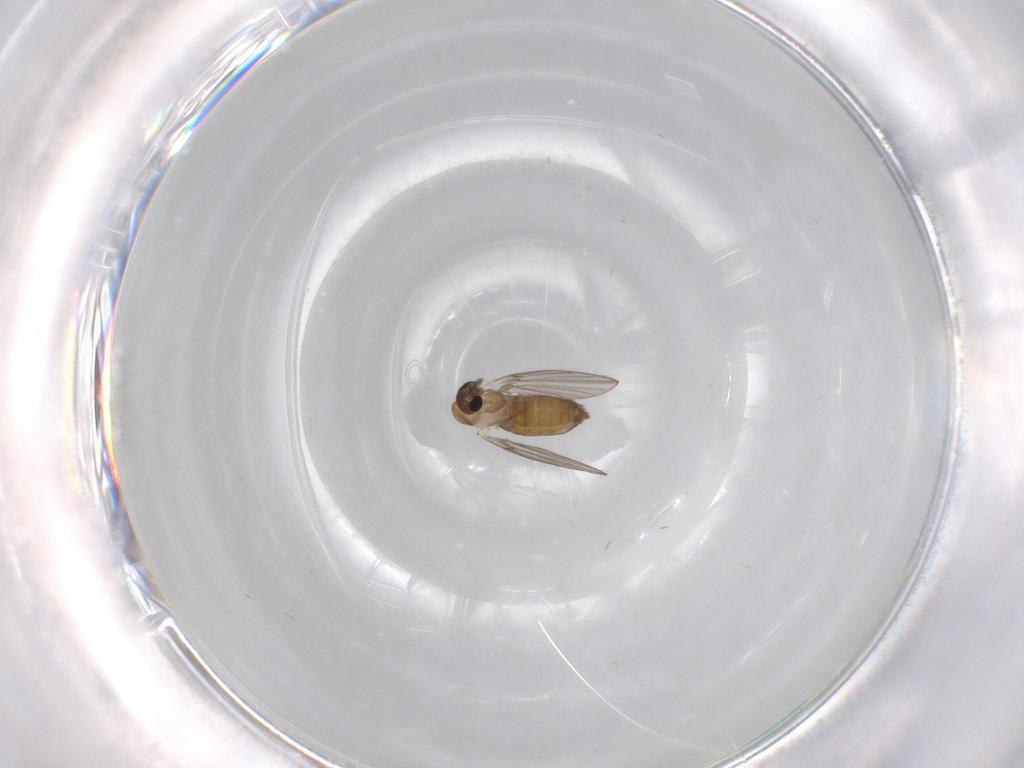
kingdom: Animalia
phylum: Arthropoda
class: Insecta
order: Diptera
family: Psychodidae
